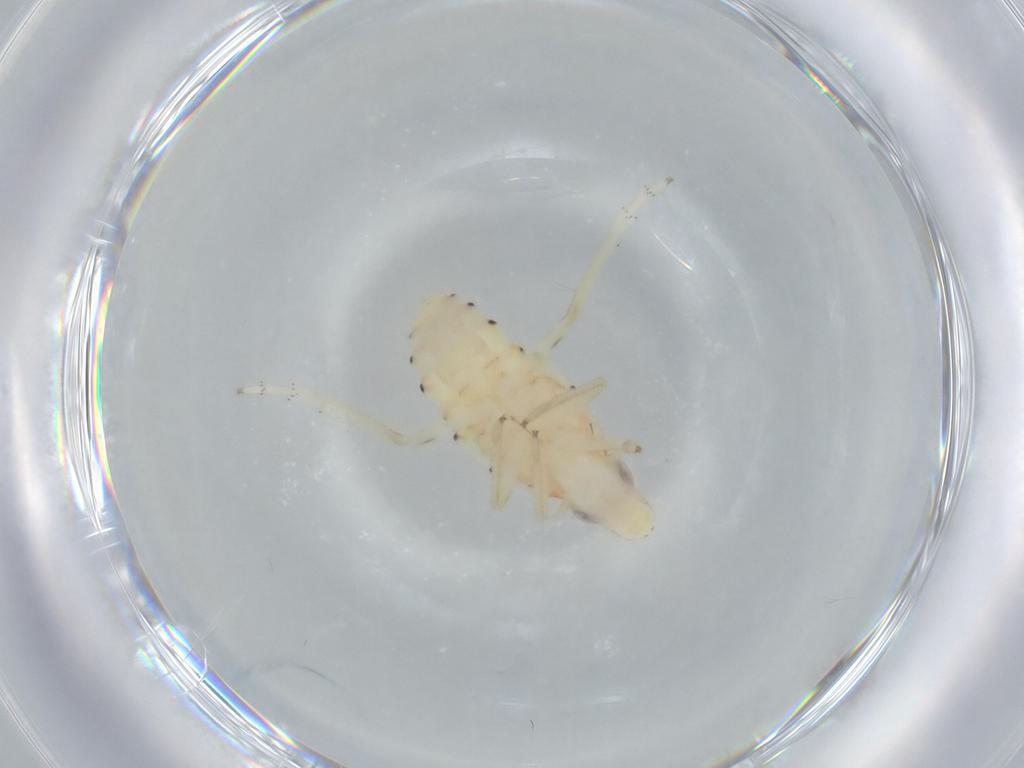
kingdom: Animalia
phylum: Arthropoda
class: Insecta
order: Hemiptera
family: Tropiduchidae
